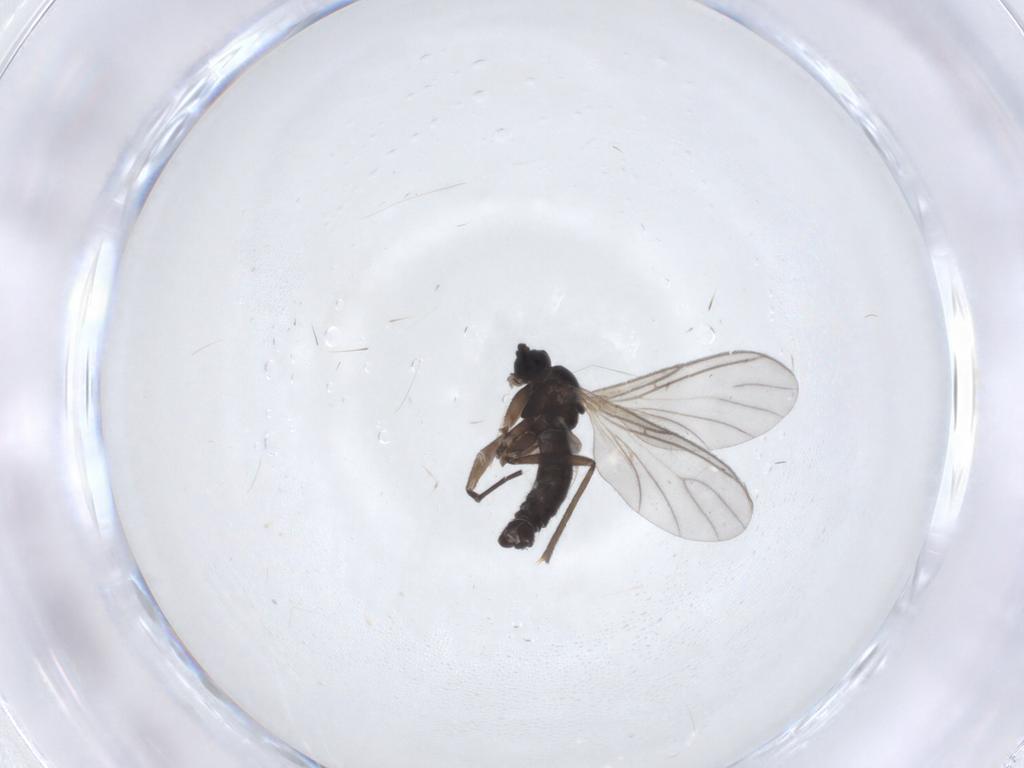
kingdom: Animalia
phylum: Arthropoda
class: Insecta
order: Diptera
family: Sciaridae
